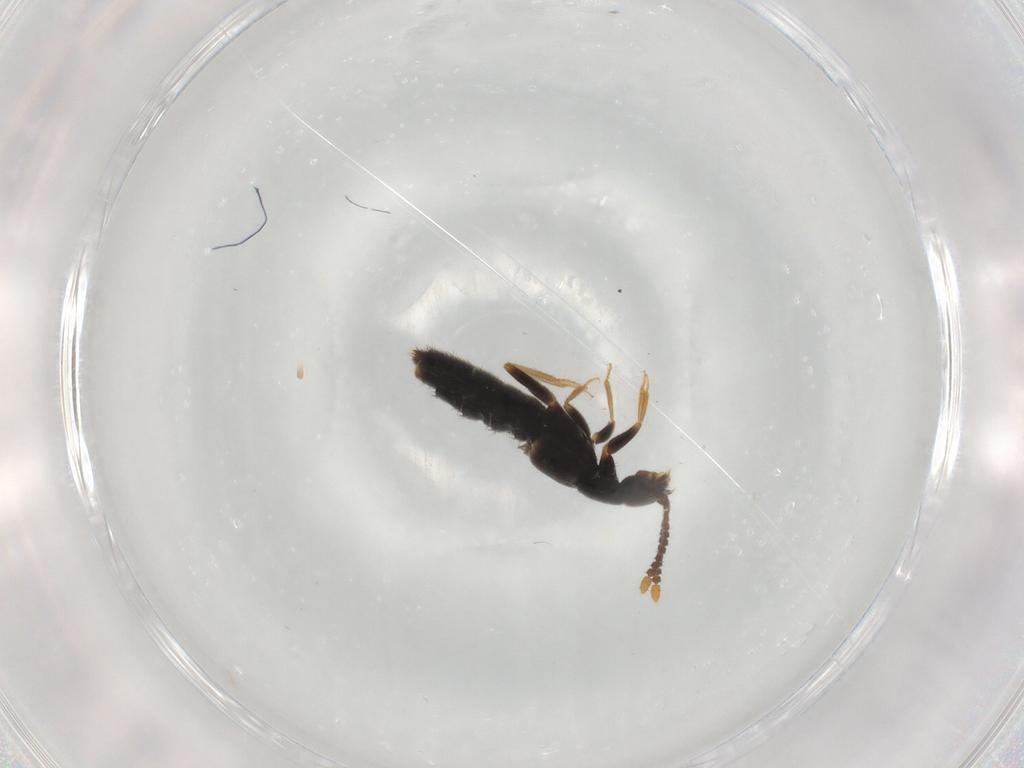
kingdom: Animalia
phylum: Arthropoda
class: Insecta
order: Coleoptera
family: Staphylinidae
